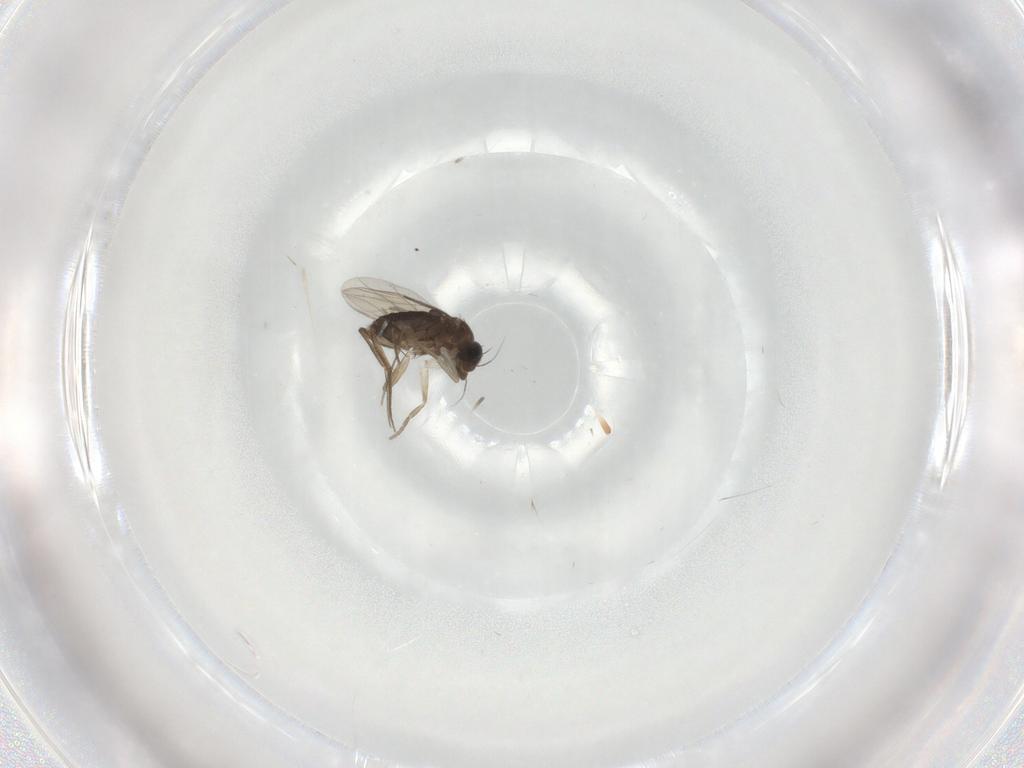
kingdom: Animalia
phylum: Arthropoda
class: Insecta
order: Diptera
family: Phoridae
